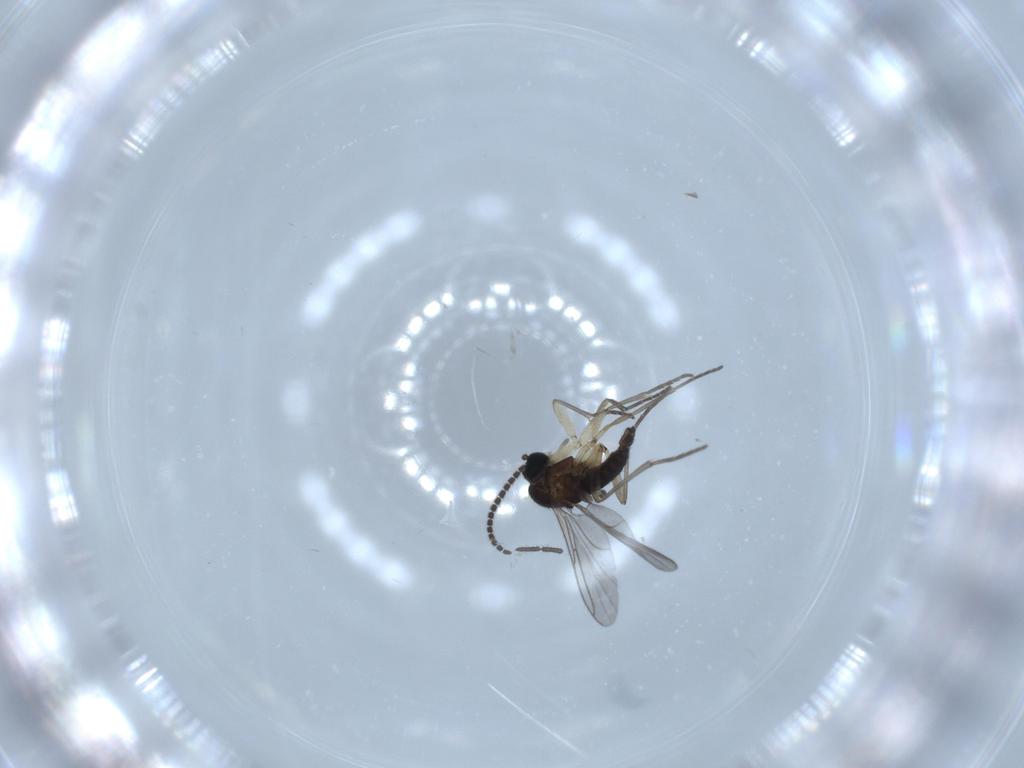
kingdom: Animalia
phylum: Arthropoda
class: Insecta
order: Diptera
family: Sciaridae
